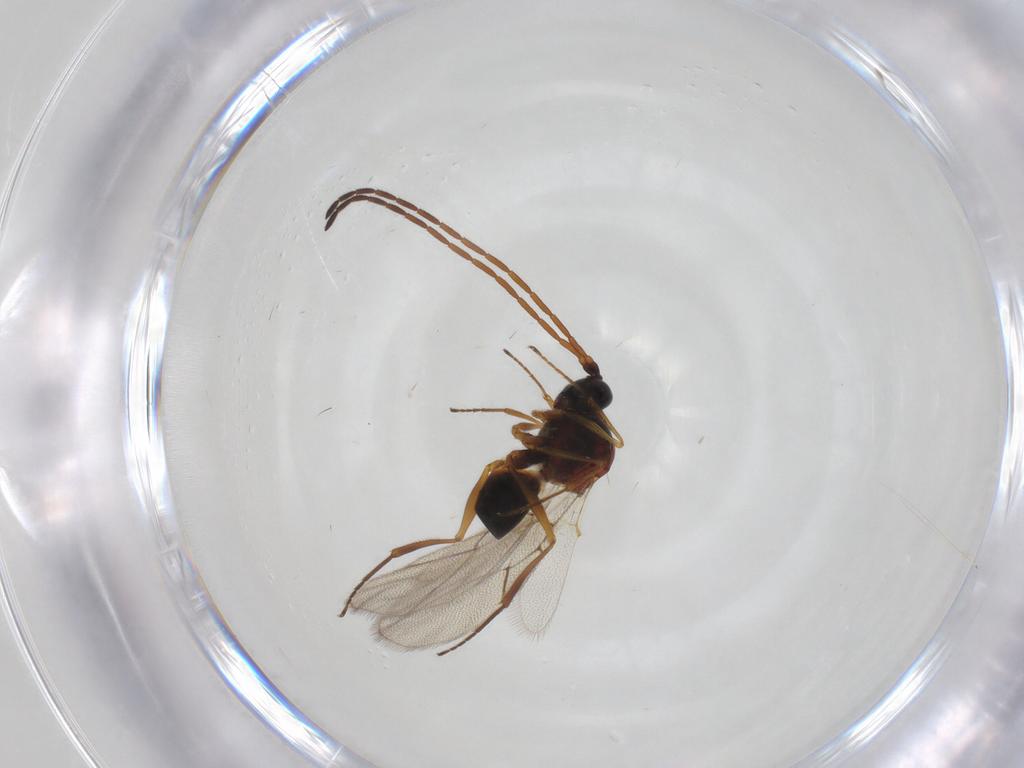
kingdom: Animalia
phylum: Arthropoda
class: Insecta
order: Hymenoptera
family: Figitidae
